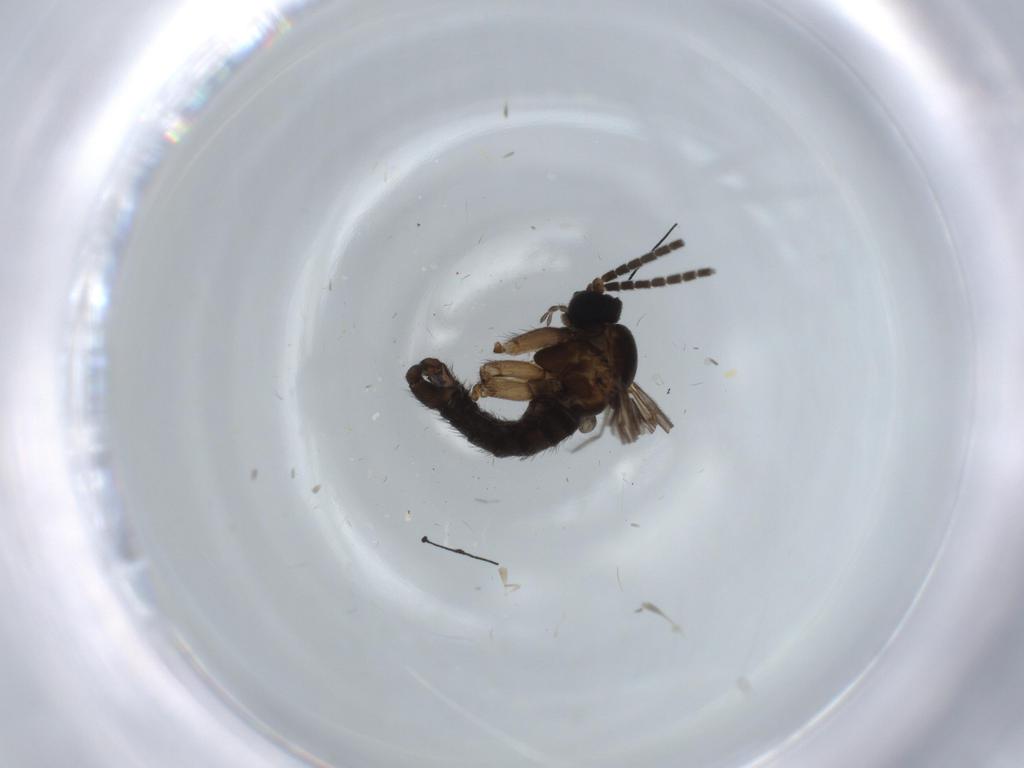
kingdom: Animalia
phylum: Arthropoda
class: Insecta
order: Diptera
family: Sciaridae
